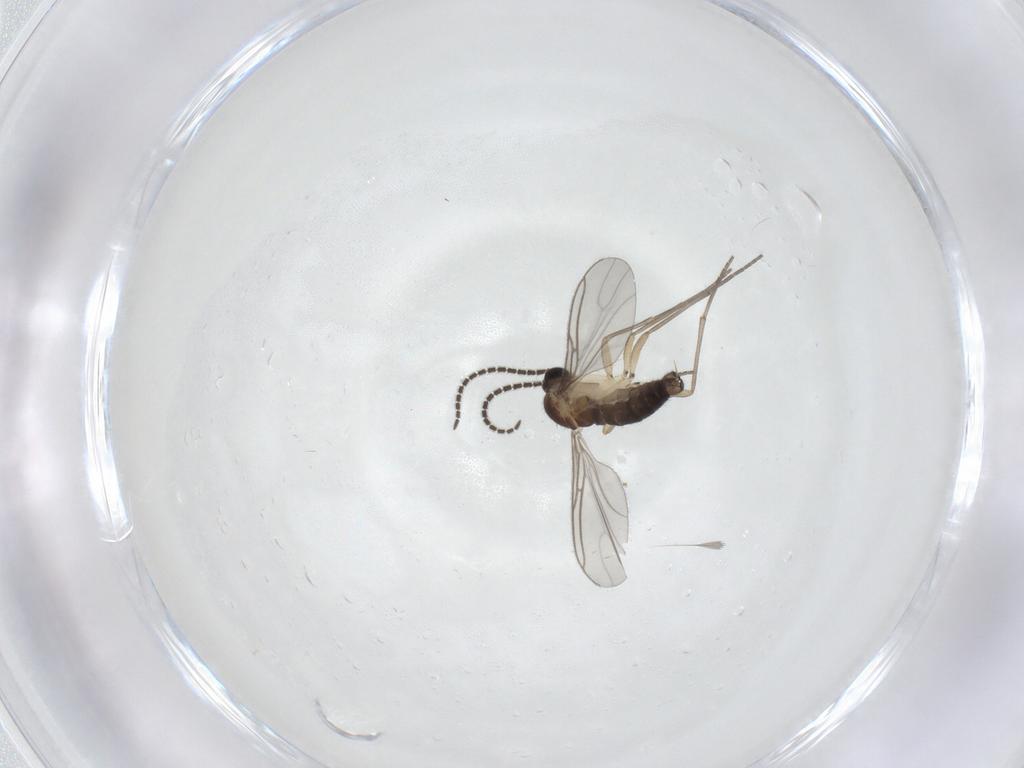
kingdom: Animalia
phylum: Arthropoda
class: Insecta
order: Diptera
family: Sciaridae
